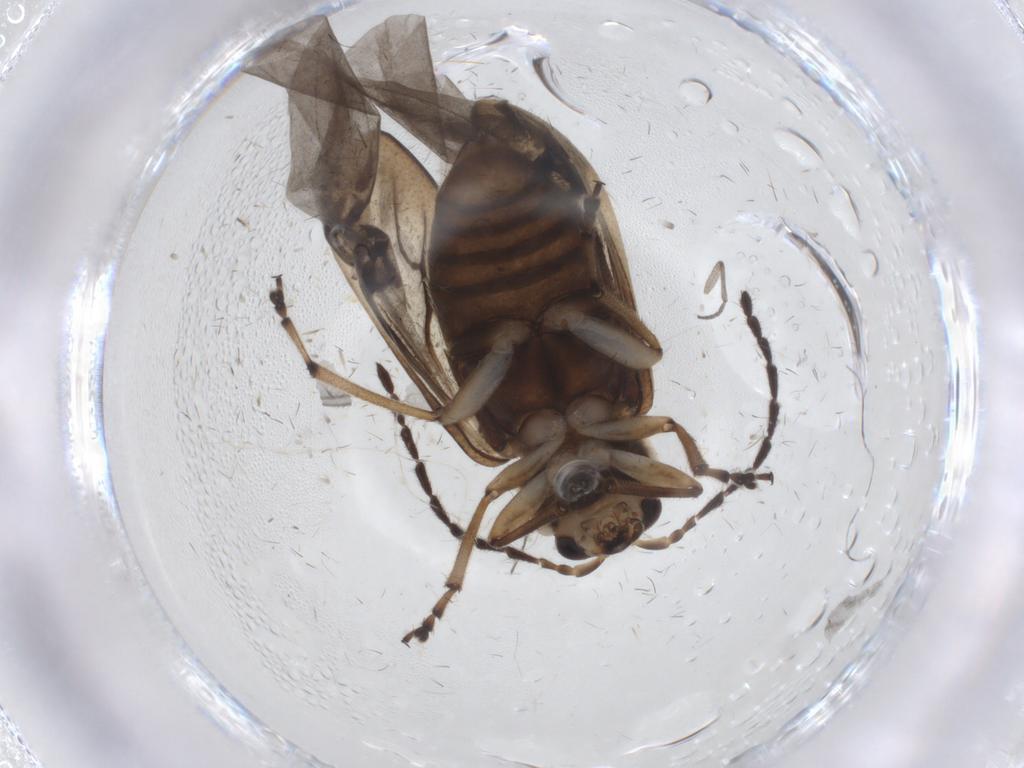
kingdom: Animalia
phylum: Arthropoda
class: Insecta
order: Coleoptera
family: Chrysomelidae
